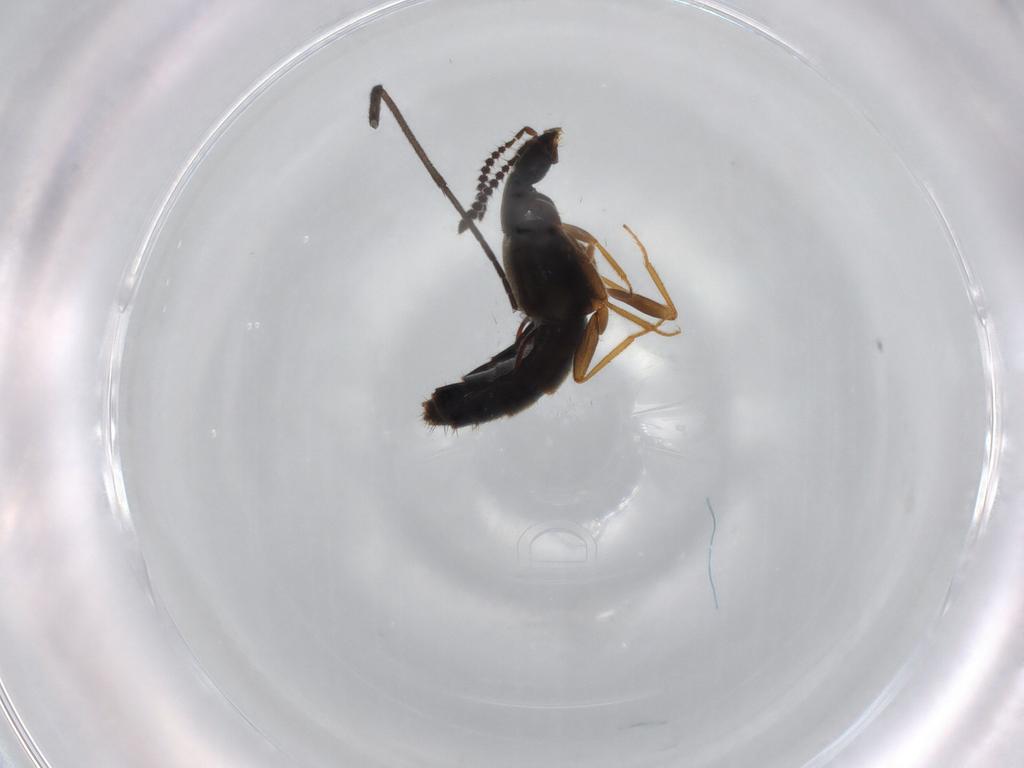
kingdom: Animalia
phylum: Arthropoda
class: Insecta
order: Coleoptera
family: Staphylinidae
